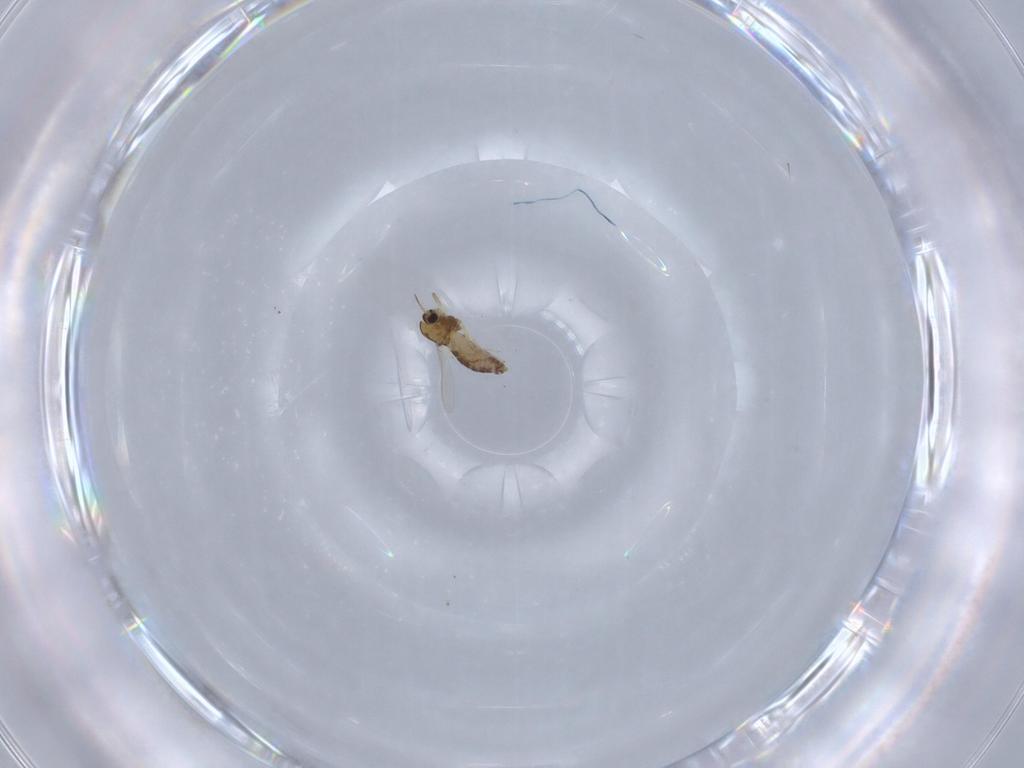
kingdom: Animalia
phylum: Arthropoda
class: Insecta
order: Diptera
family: Chironomidae
